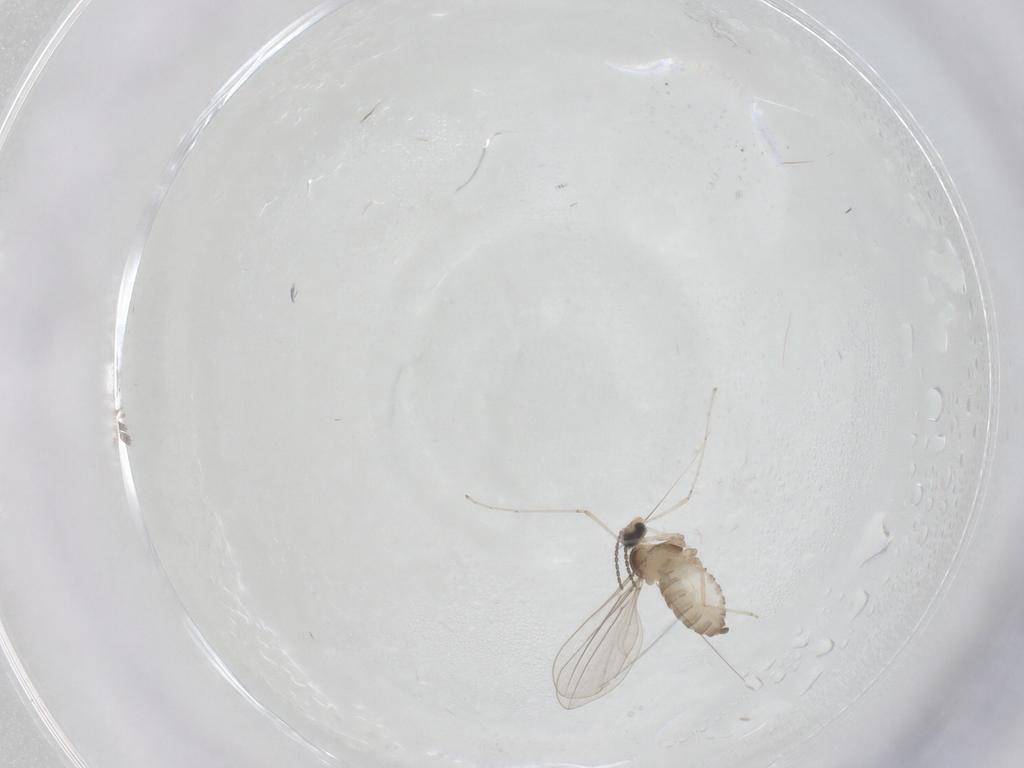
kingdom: Animalia
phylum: Arthropoda
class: Insecta
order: Diptera
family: Cecidomyiidae
